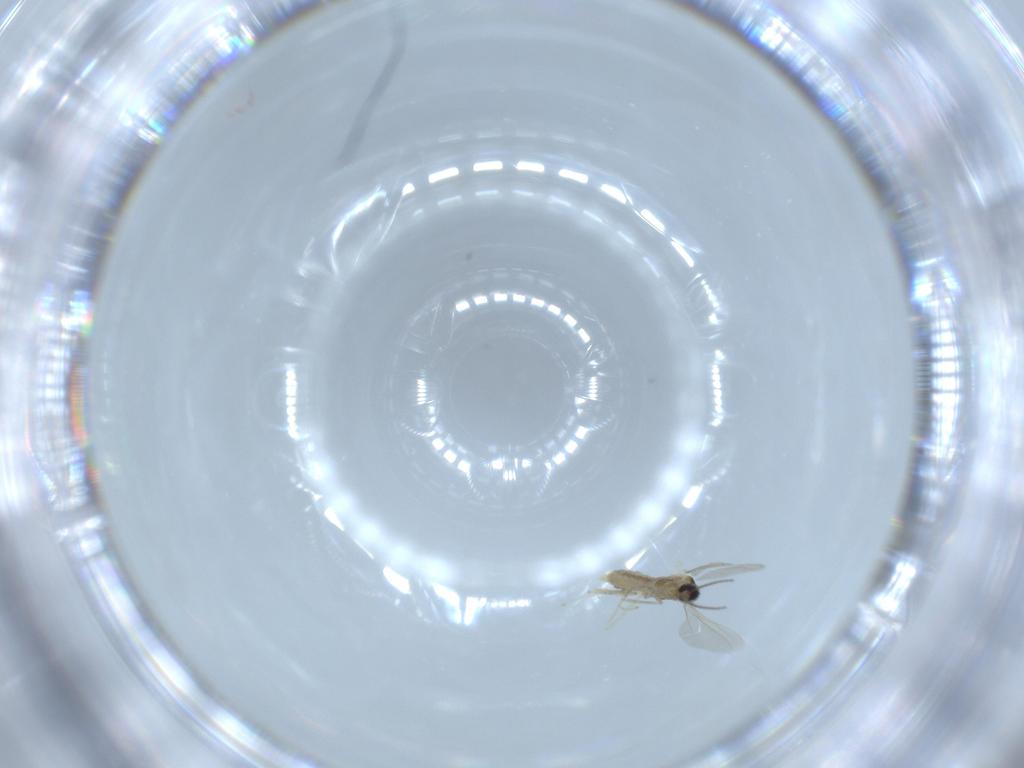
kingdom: Animalia
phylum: Arthropoda
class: Insecta
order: Diptera
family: Cecidomyiidae
